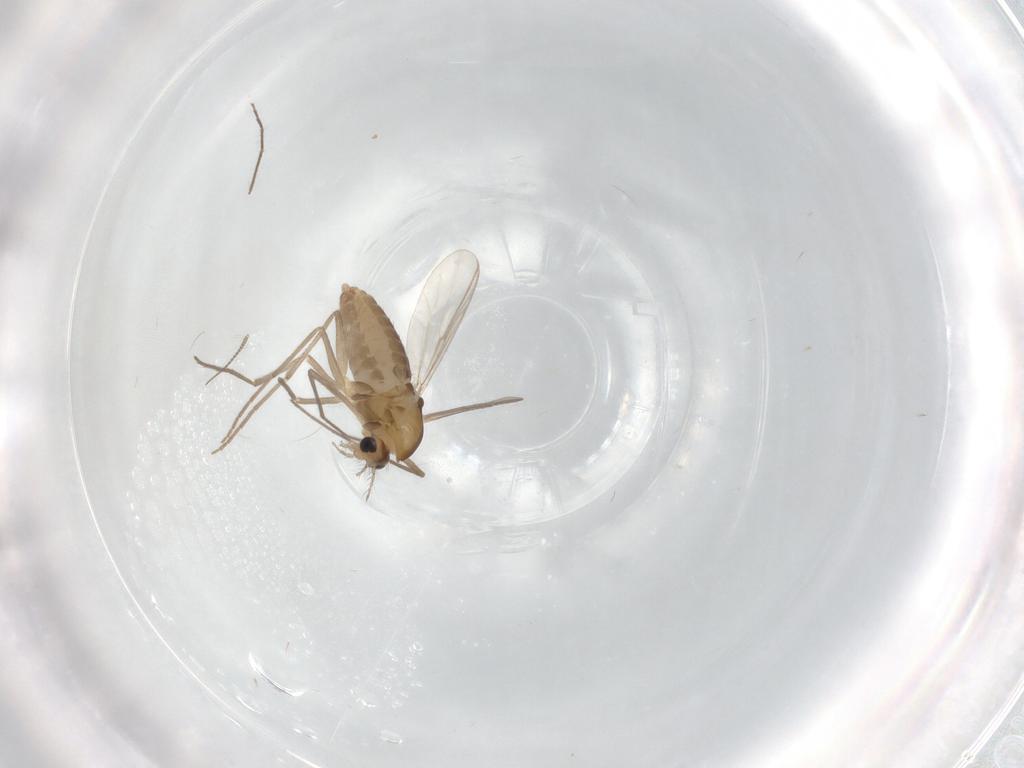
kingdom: Animalia
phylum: Arthropoda
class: Insecta
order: Diptera
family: Chironomidae
